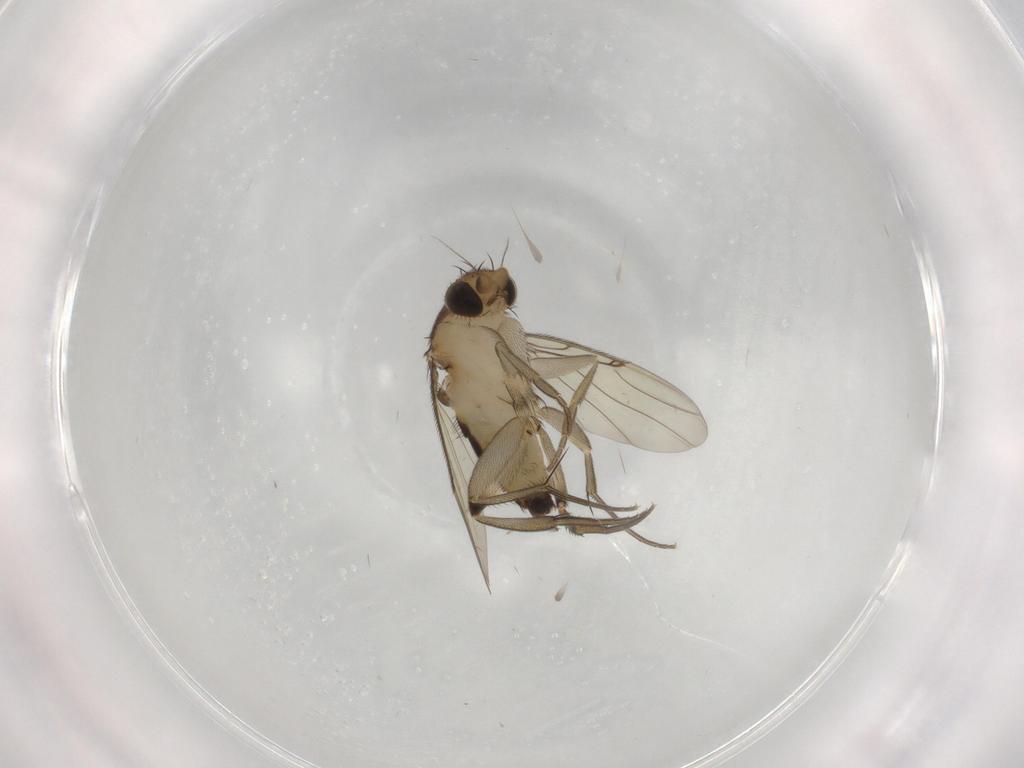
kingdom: Animalia
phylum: Arthropoda
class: Insecta
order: Diptera
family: Phoridae
